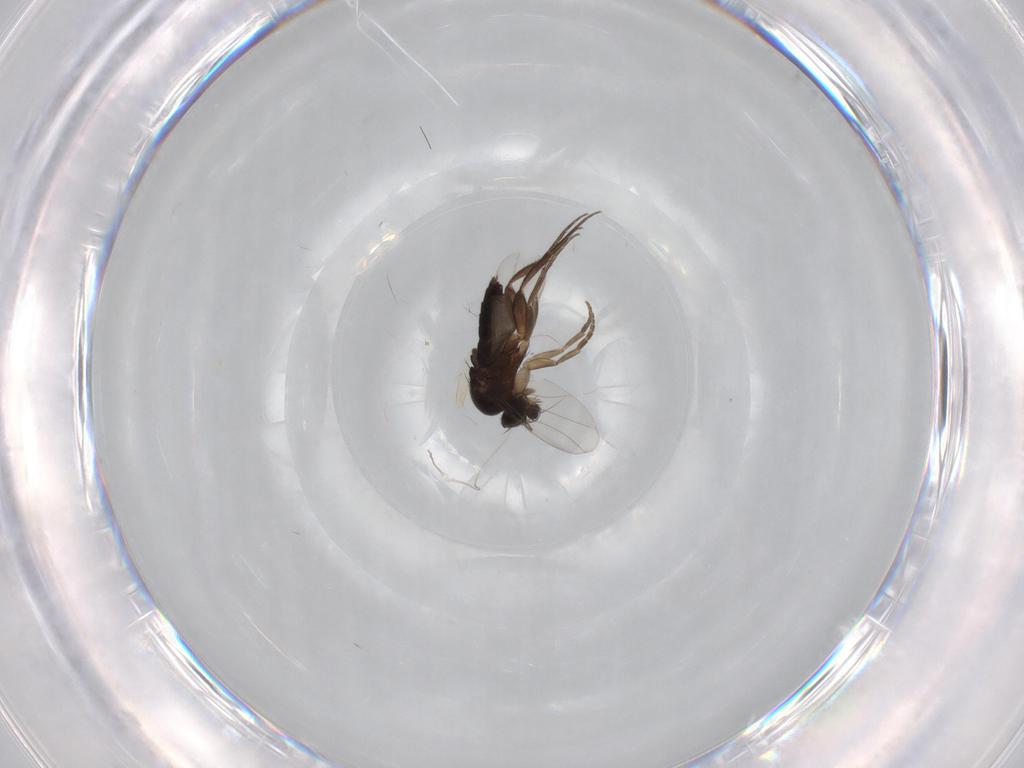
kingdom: Animalia
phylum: Arthropoda
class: Insecta
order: Diptera
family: Phoridae
